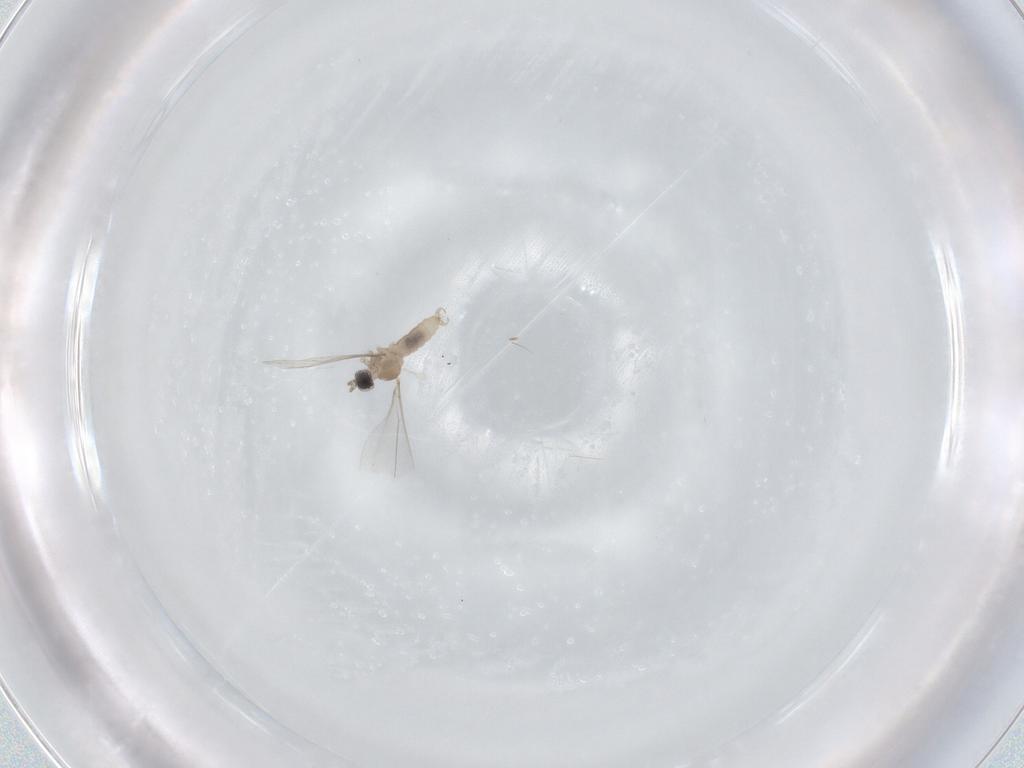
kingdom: Animalia
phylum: Arthropoda
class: Insecta
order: Diptera
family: Cecidomyiidae
